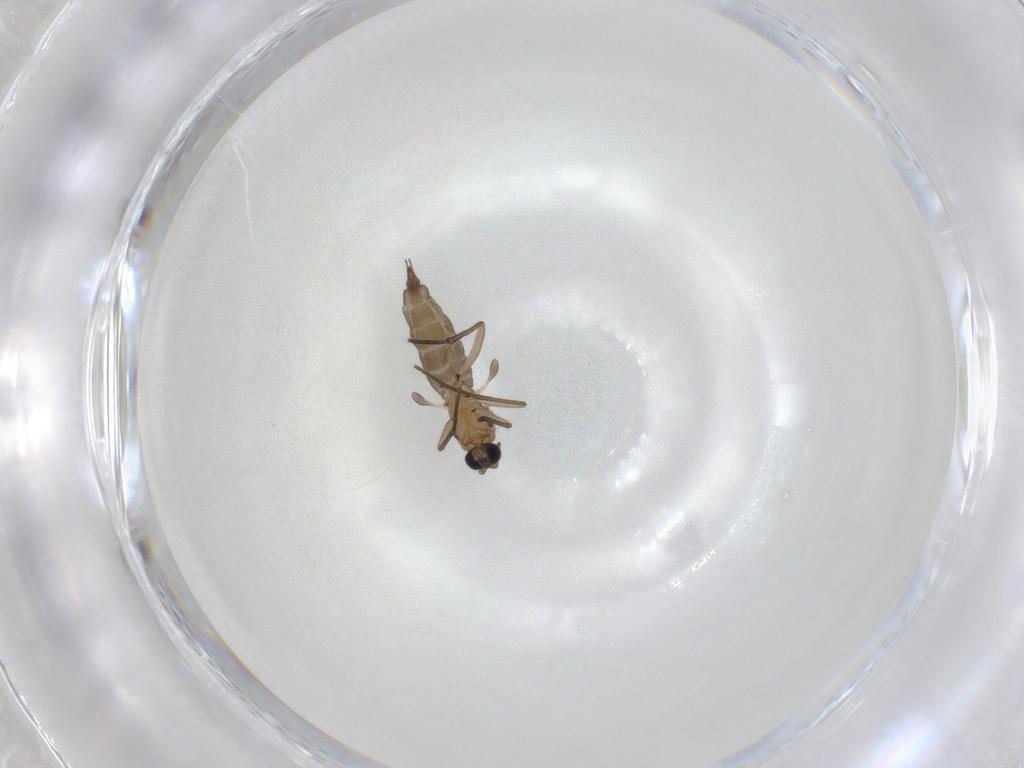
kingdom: Animalia
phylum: Arthropoda
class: Insecta
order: Diptera
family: Sciaridae
